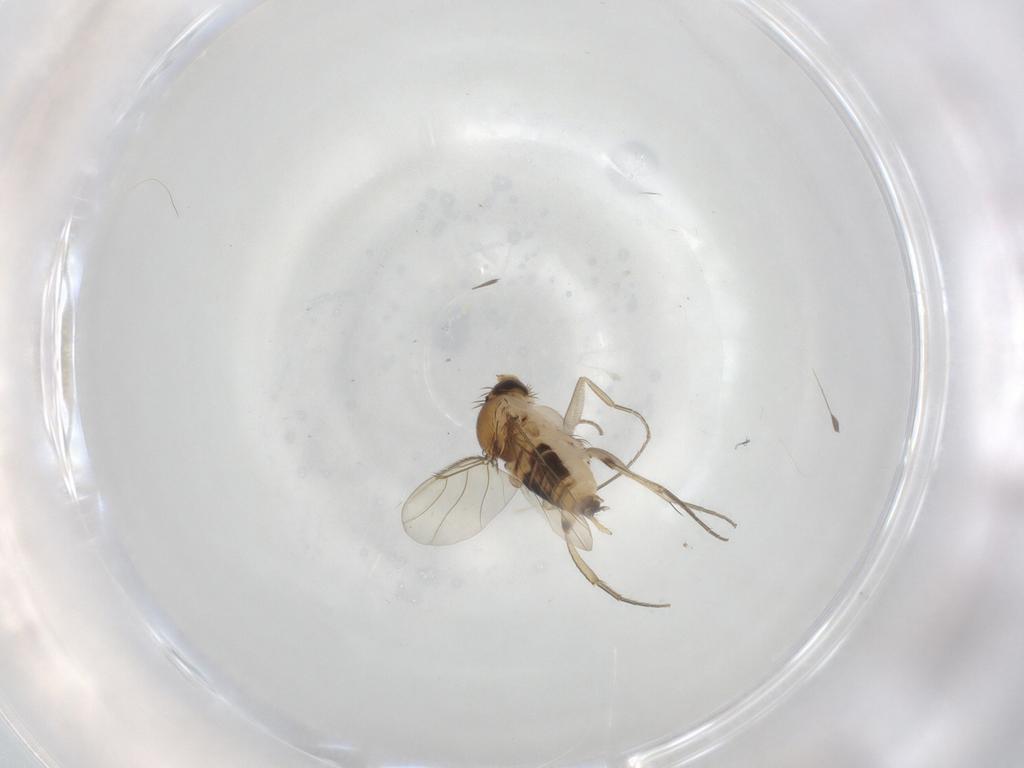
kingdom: Animalia
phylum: Arthropoda
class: Insecta
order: Diptera
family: Phoridae
